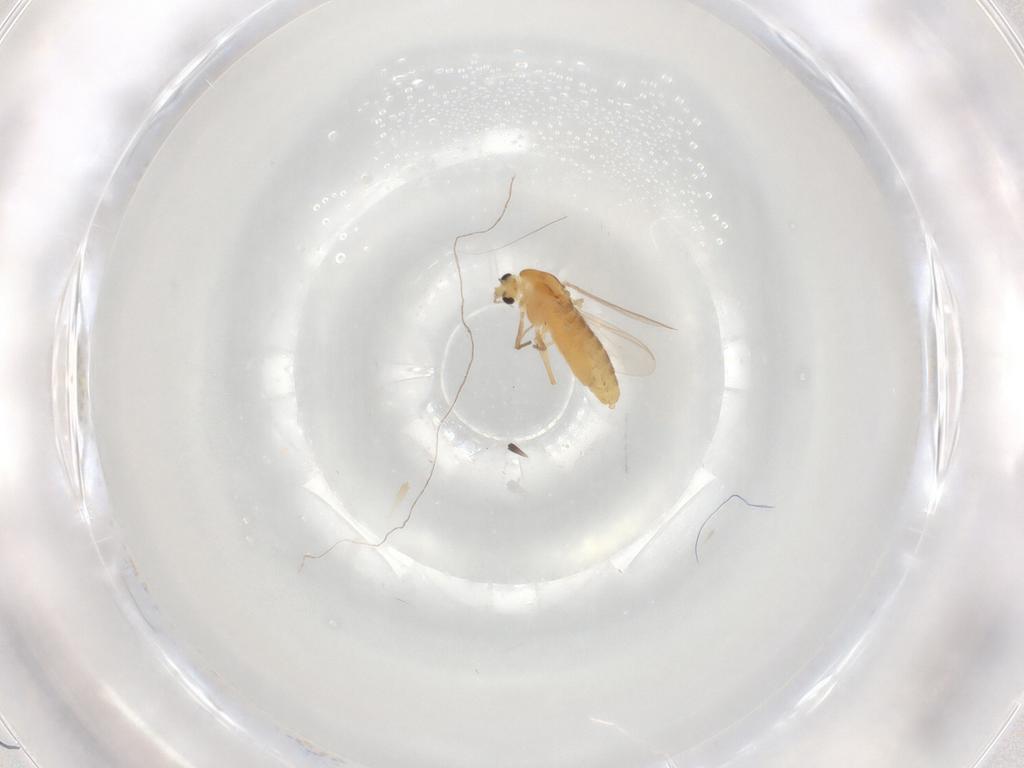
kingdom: Animalia
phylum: Arthropoda
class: Insecta
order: Diptera
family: Chironomidae
